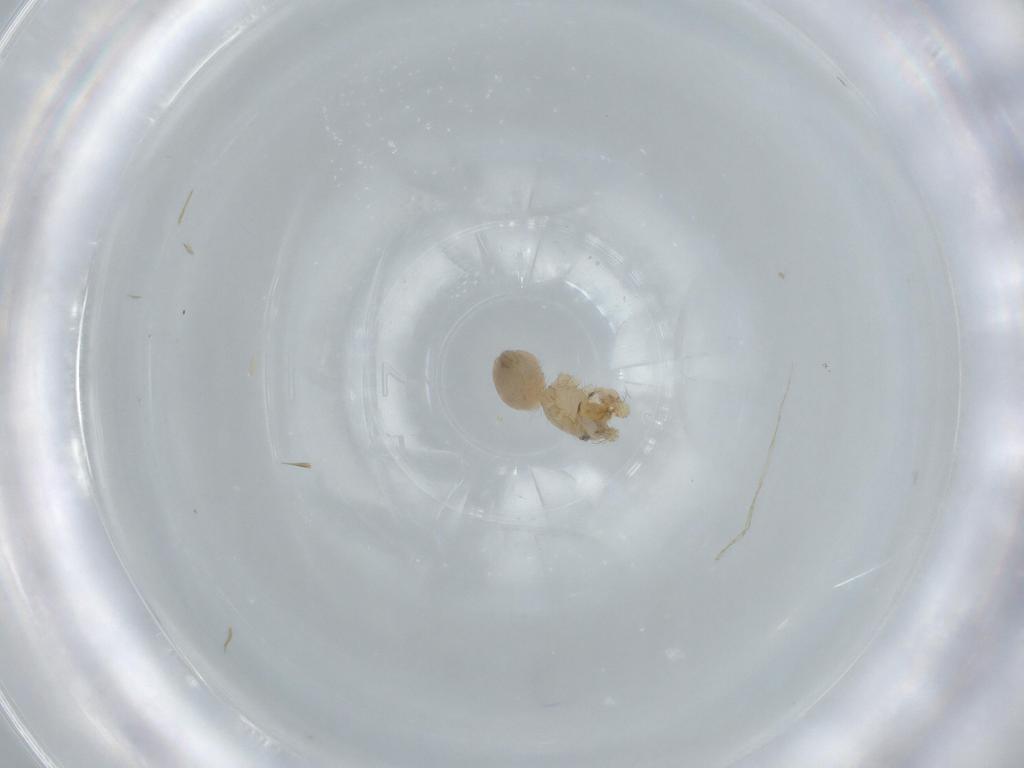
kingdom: Animalia
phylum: Arthropoda
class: Arachnida
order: Araneae
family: Oonopidae
